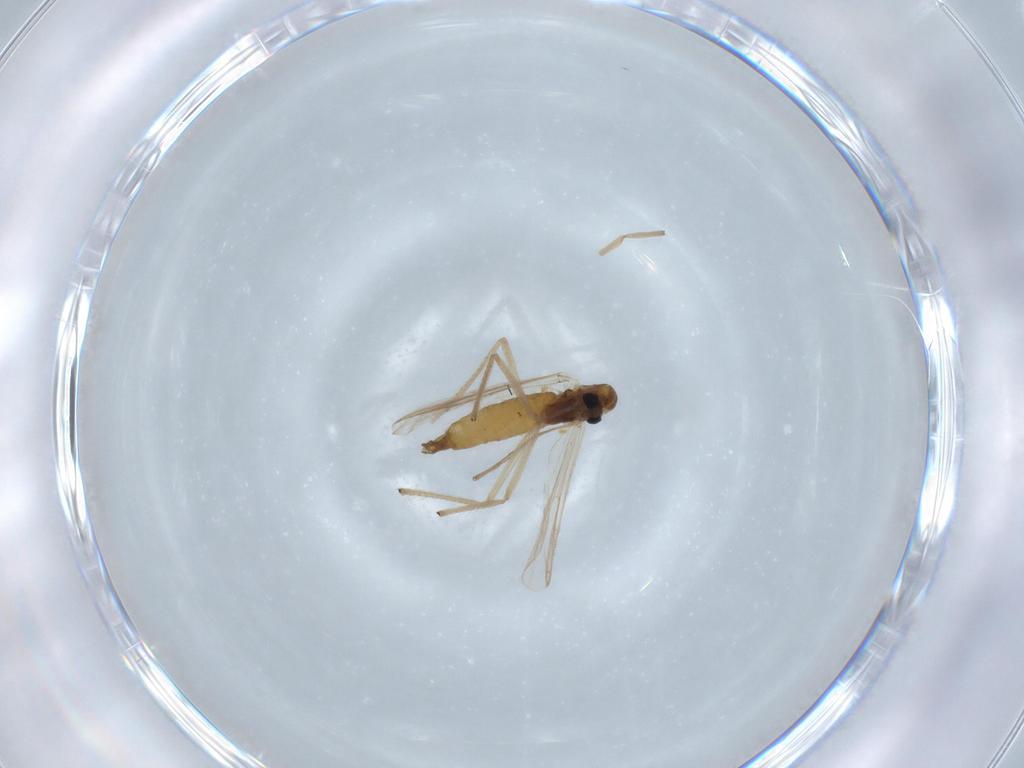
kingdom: Animalia
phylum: Arthropoda
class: Insecta
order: Diptera
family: Chironomidae
